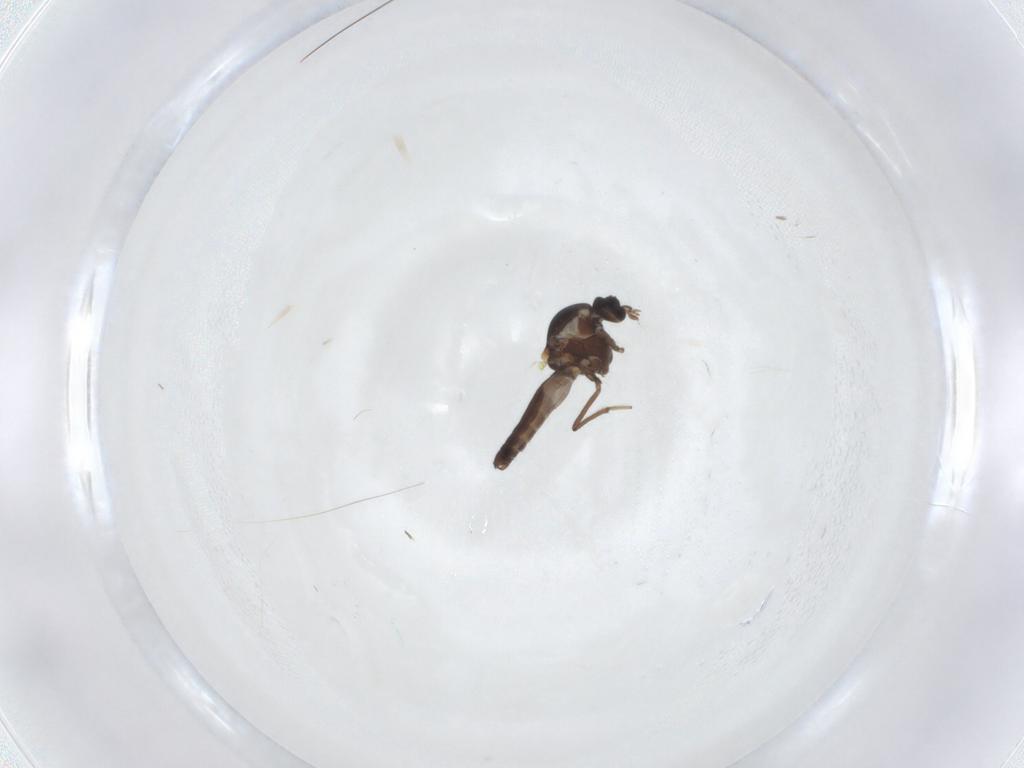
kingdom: Animalia
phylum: Arthropoda
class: Insecta
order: Diptera
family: Ceratopogonidae
